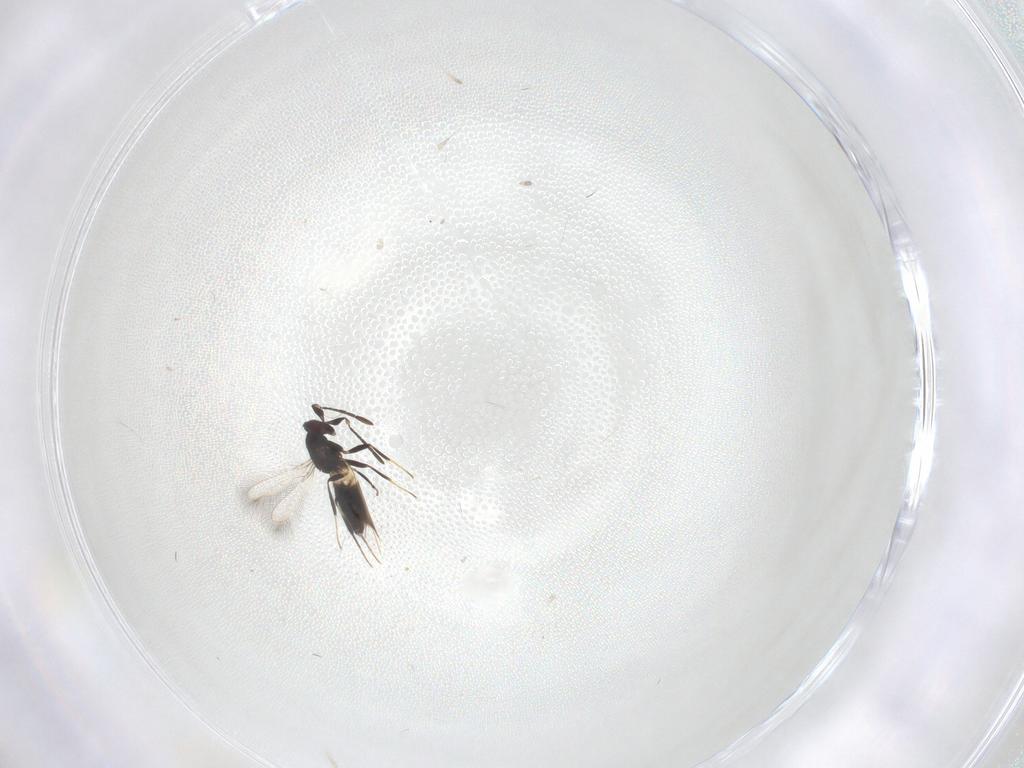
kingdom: Animalia
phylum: Arthropoda
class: Insecta
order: Hymenoptera
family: Mymaridae
